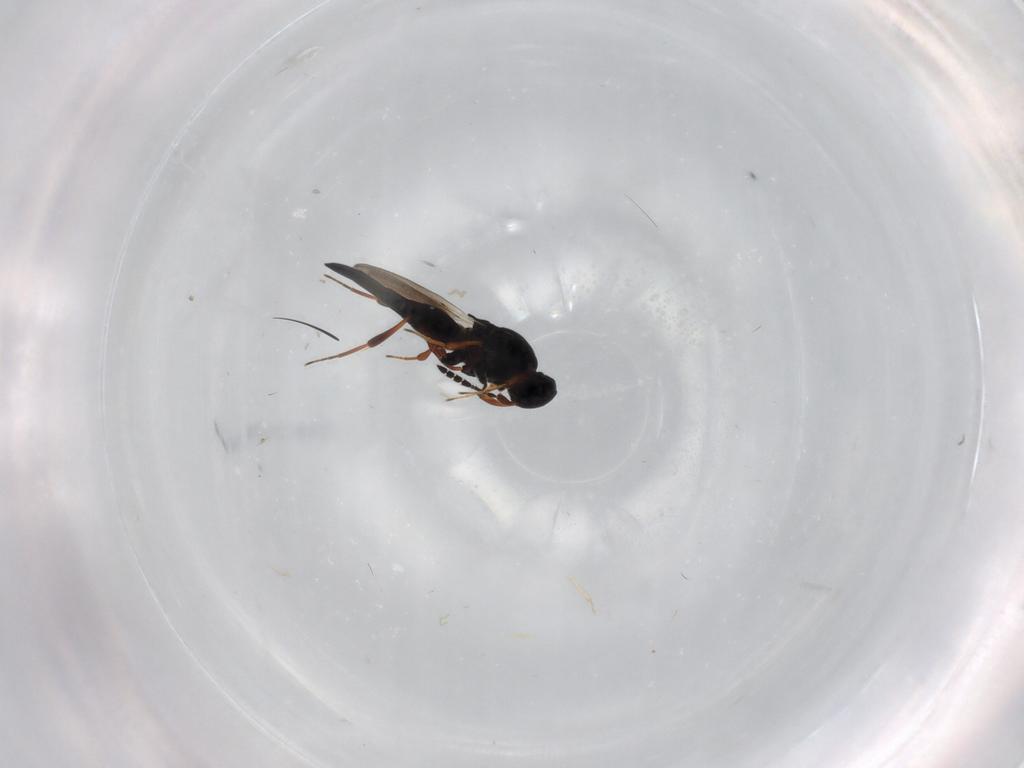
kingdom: Animalia
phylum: Arthropoda
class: Insecta
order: Hymenoptera
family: Platygastridae
